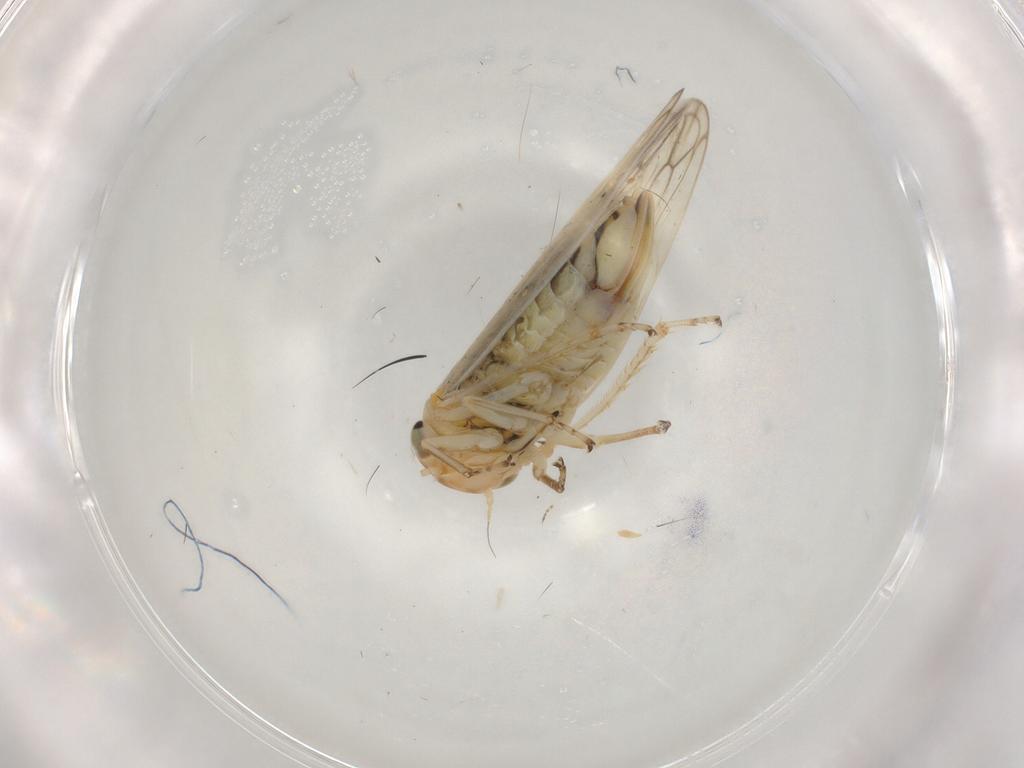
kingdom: Animalia
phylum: Arthropoda
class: Insecta
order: Hemiptera
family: Cicadellidae
